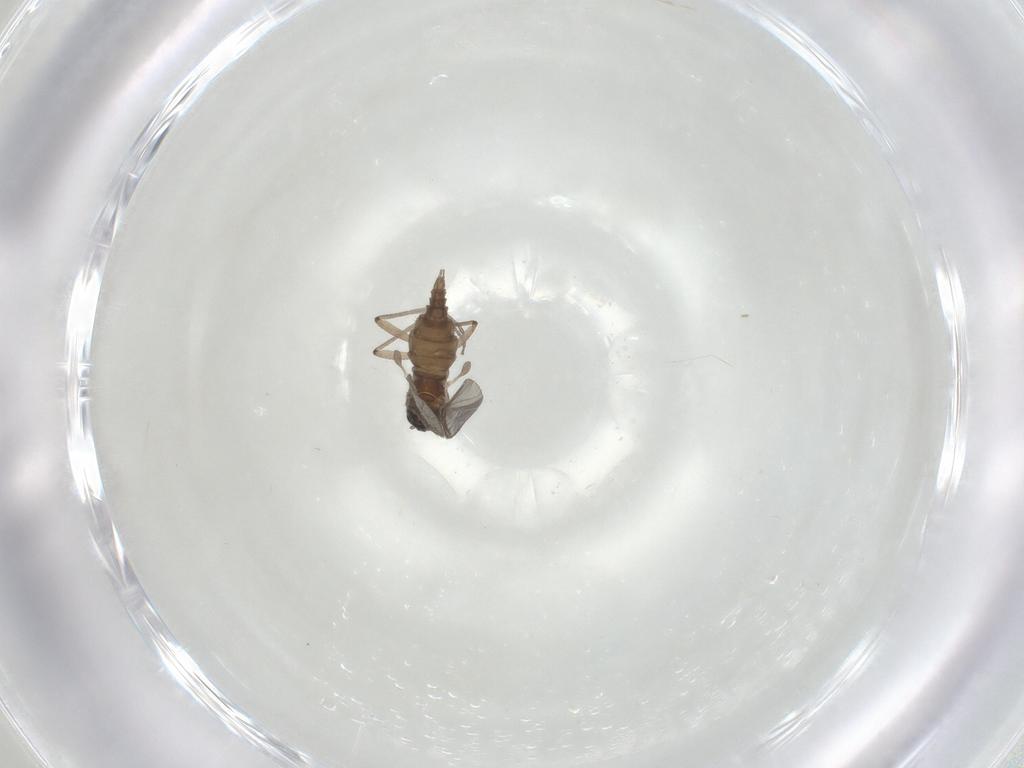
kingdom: Animalia
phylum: Arthropoda
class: Insecta
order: Diptera
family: Sciaridae
